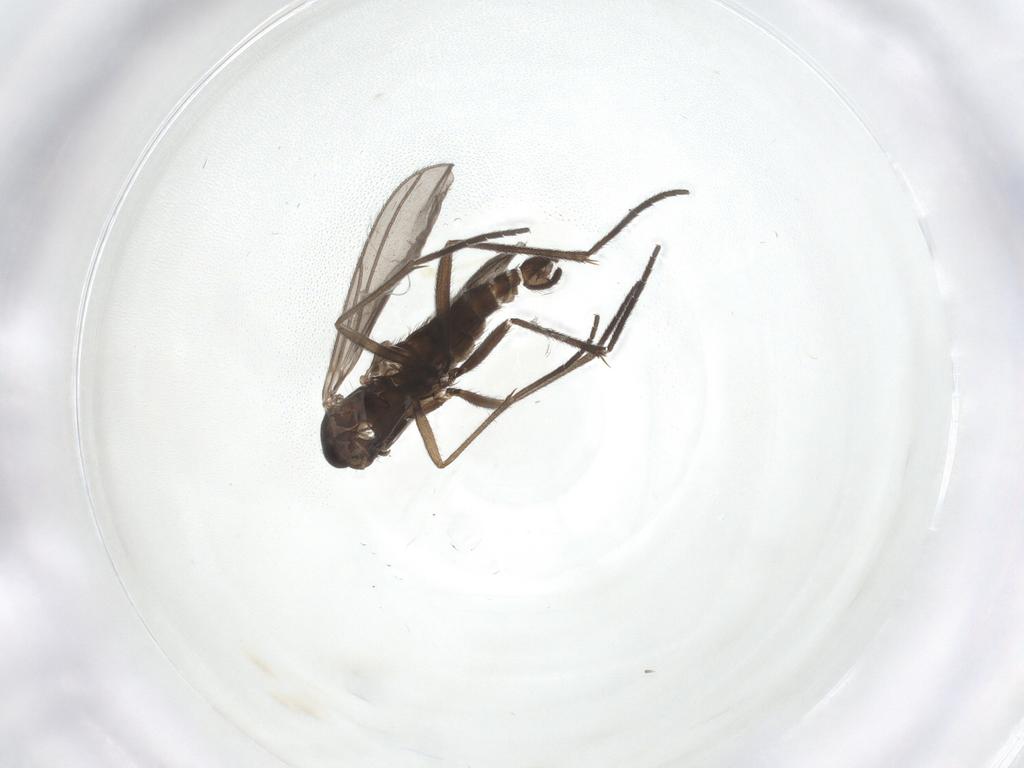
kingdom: Animalia
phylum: Arthropoda
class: Insecta
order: Diptera
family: Sciaridae
